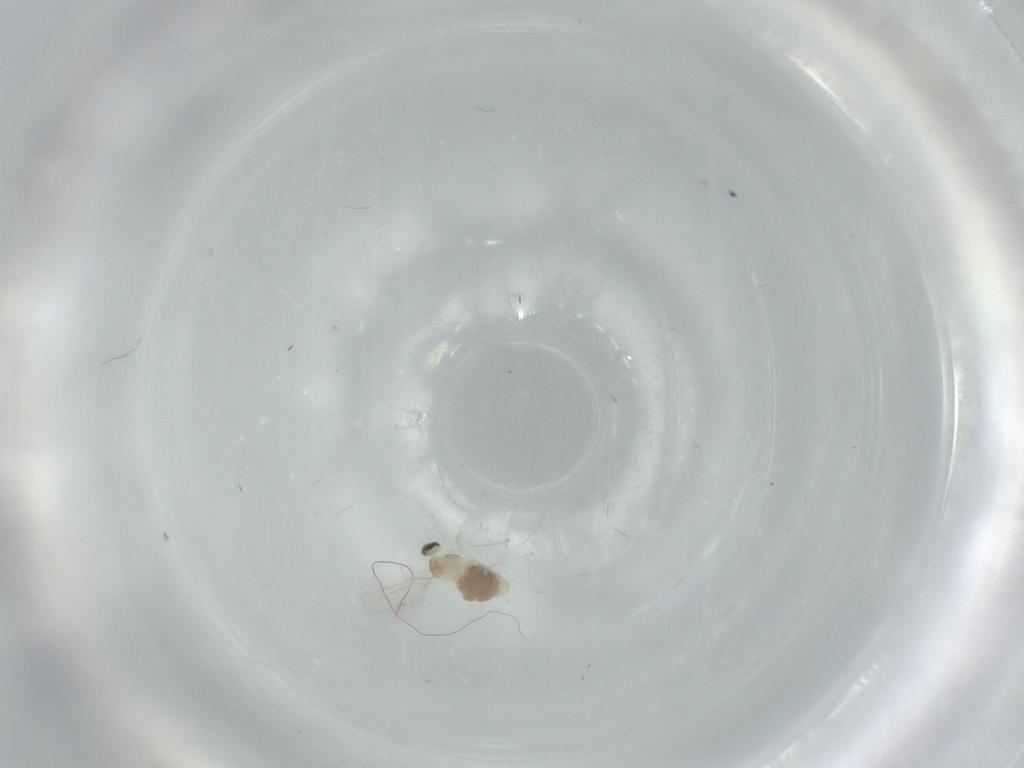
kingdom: Animalia
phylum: Arthropoda
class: Insecta
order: Diptera
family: Cecidomyiidae
